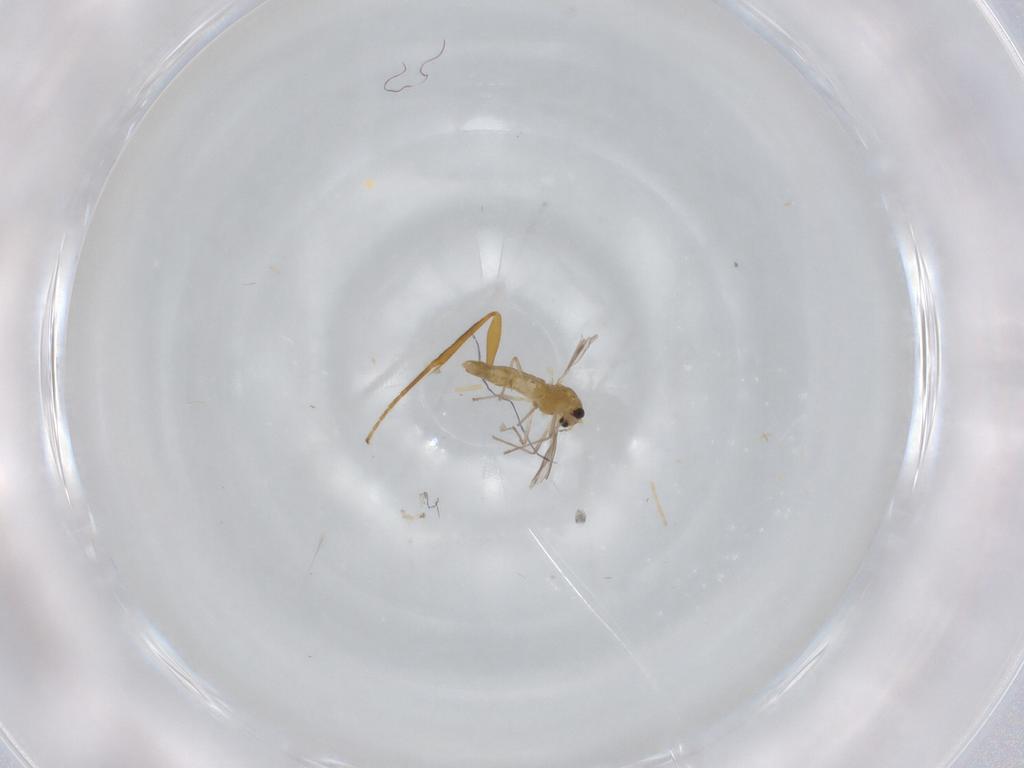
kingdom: Animalia
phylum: Arthropoda
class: Insecta
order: Diptera
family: Chironomidae
